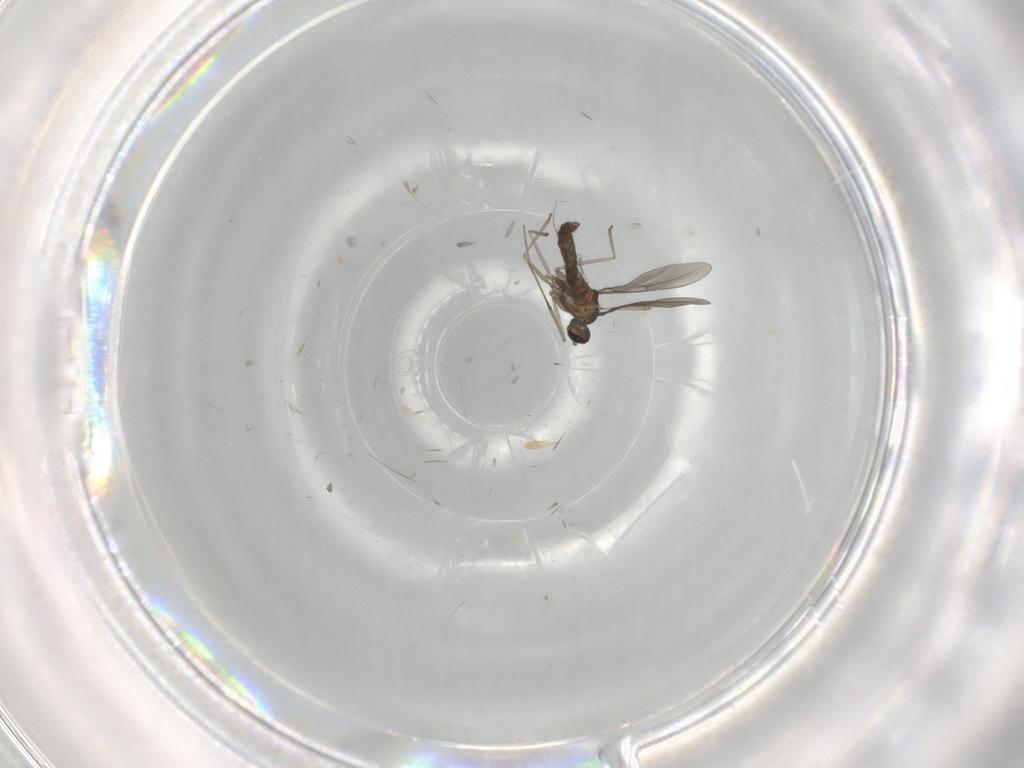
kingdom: Animalia
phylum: Arthropoda
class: Insecta
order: Diptera
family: Cecidomyiidae
